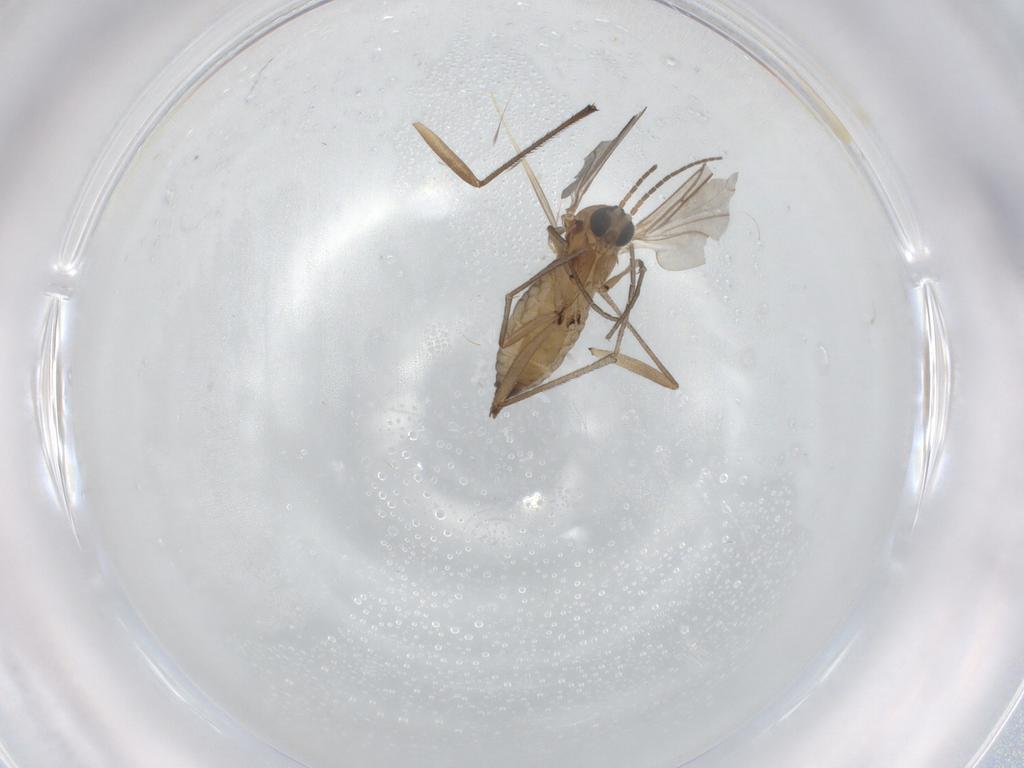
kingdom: Animalia
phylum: Arthropoda
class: Insecta
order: Diptera
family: Sciaridae
